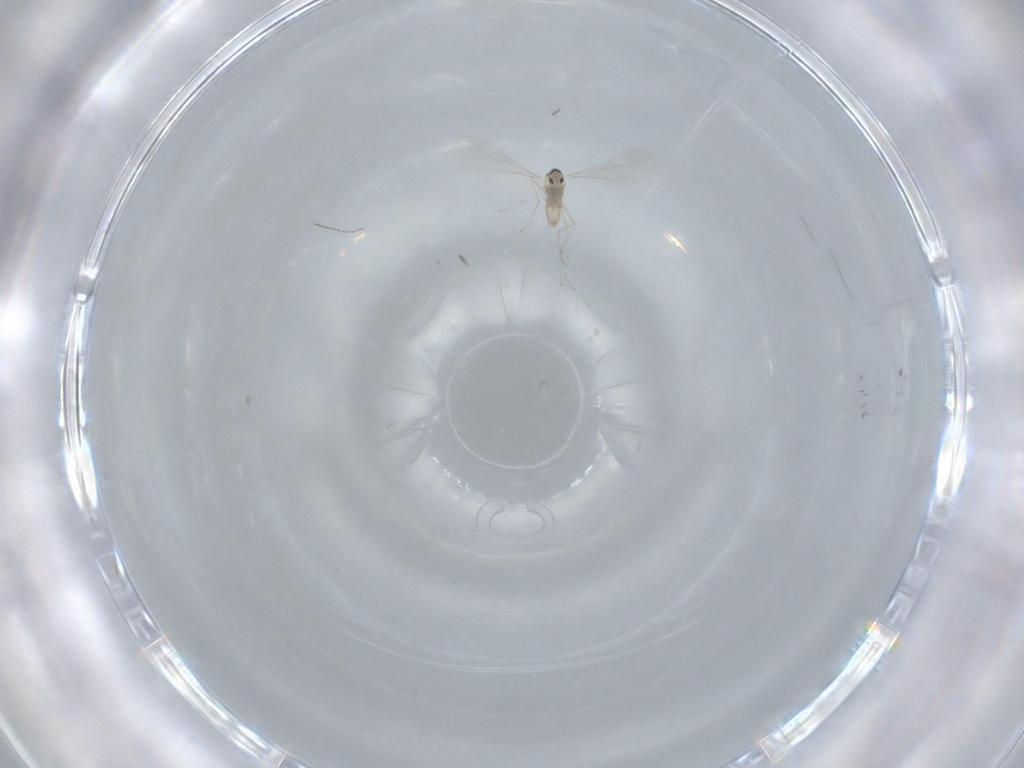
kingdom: Animalia
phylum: Arthropoda
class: Insecta
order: Diptera
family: Cecidomyiidae
